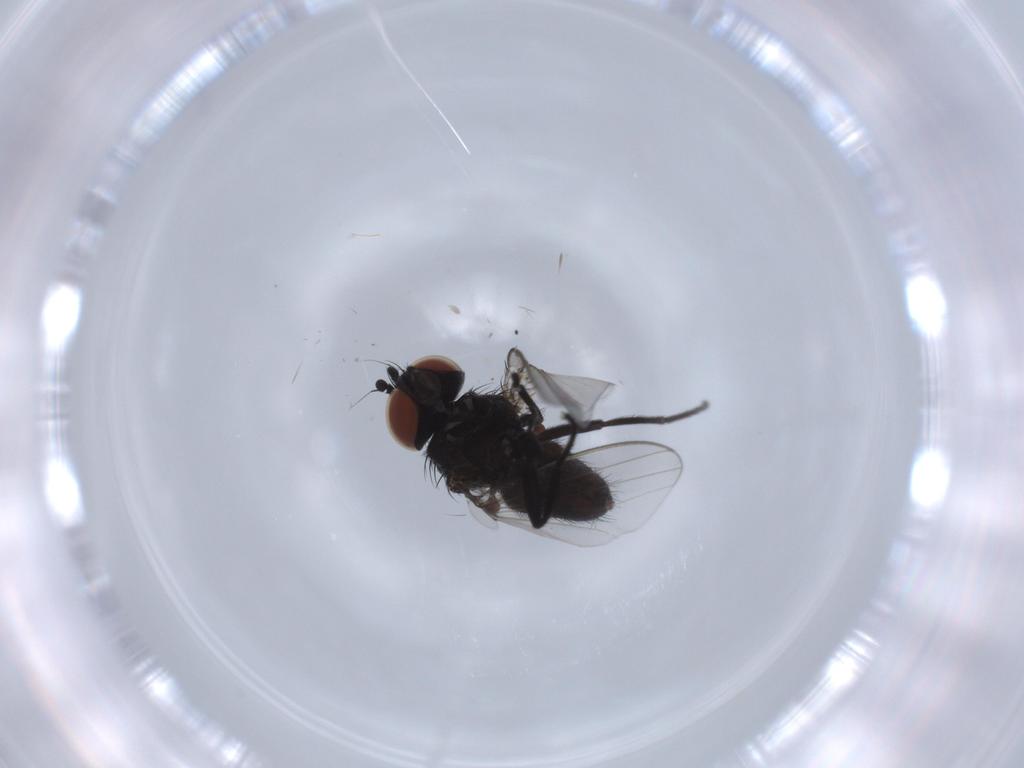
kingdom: Animalia
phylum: Arthropoda
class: Insecta
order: Diptera
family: Milichiidae
